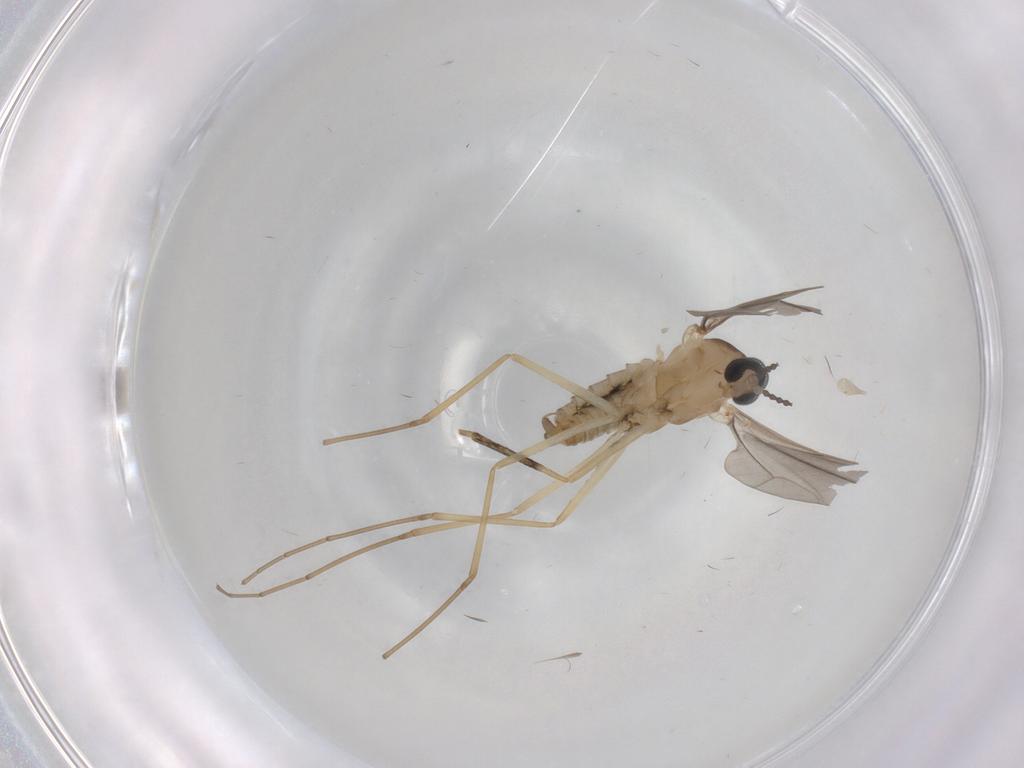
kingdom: Animalia
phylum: Arthropoda
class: Insecta
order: Diptera
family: Cecidomyiidae
